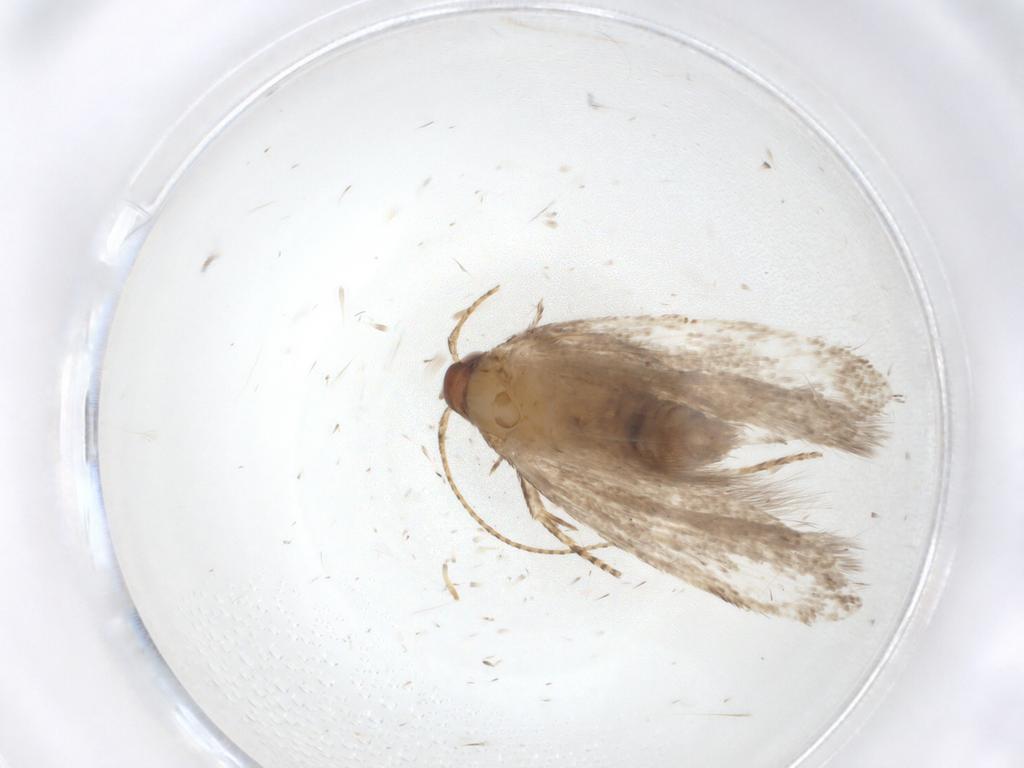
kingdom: Animalia
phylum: Arthropoda
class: Insecta
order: Lepidoptera
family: Coleophoridae
